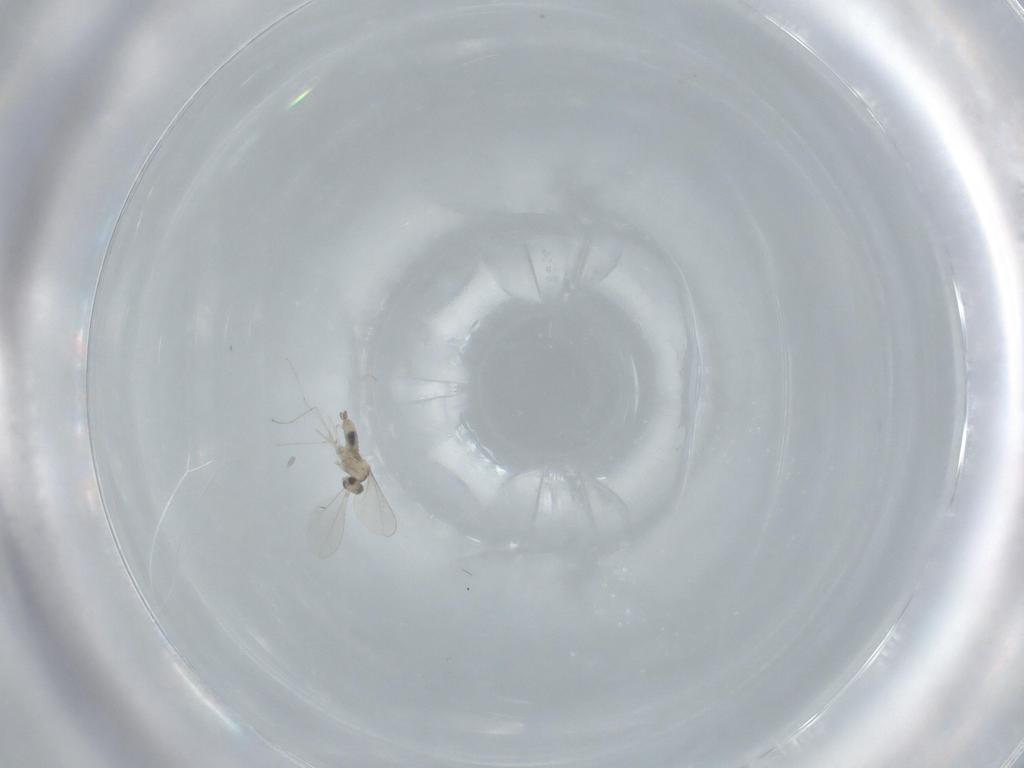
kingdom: Animalia
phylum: Arthropoda
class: Insecta
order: Diptera
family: Cecidomyiidae
